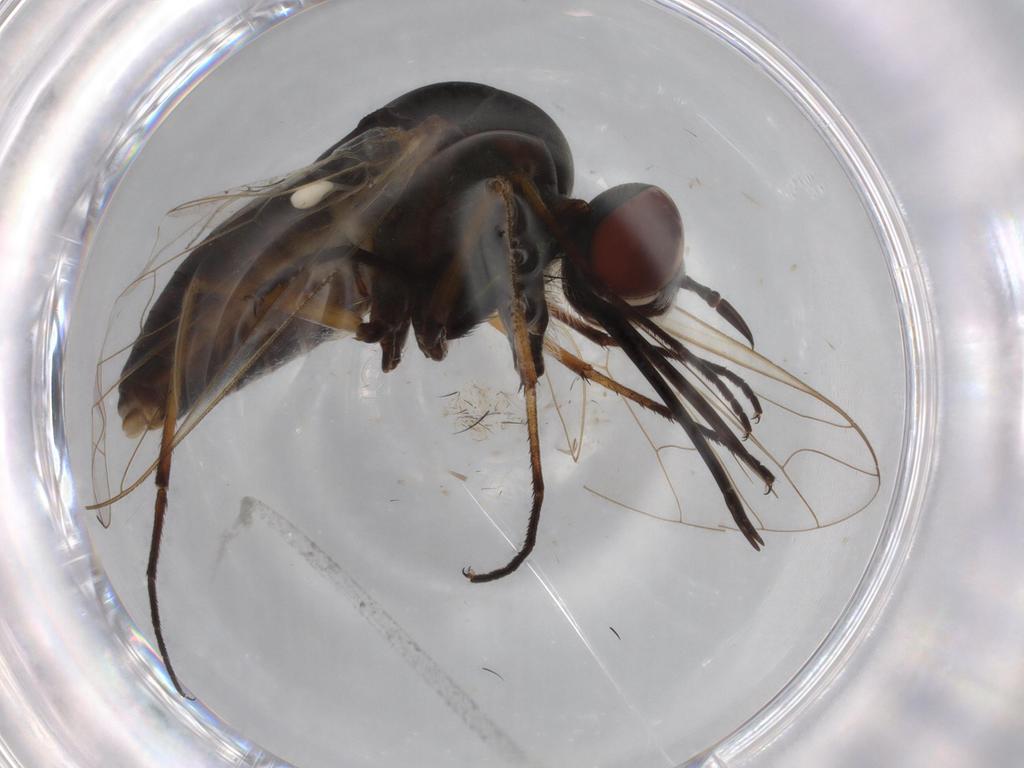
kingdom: Animalia
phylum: Arthropoda
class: Insecta
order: Diptera
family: Bombyliidae
